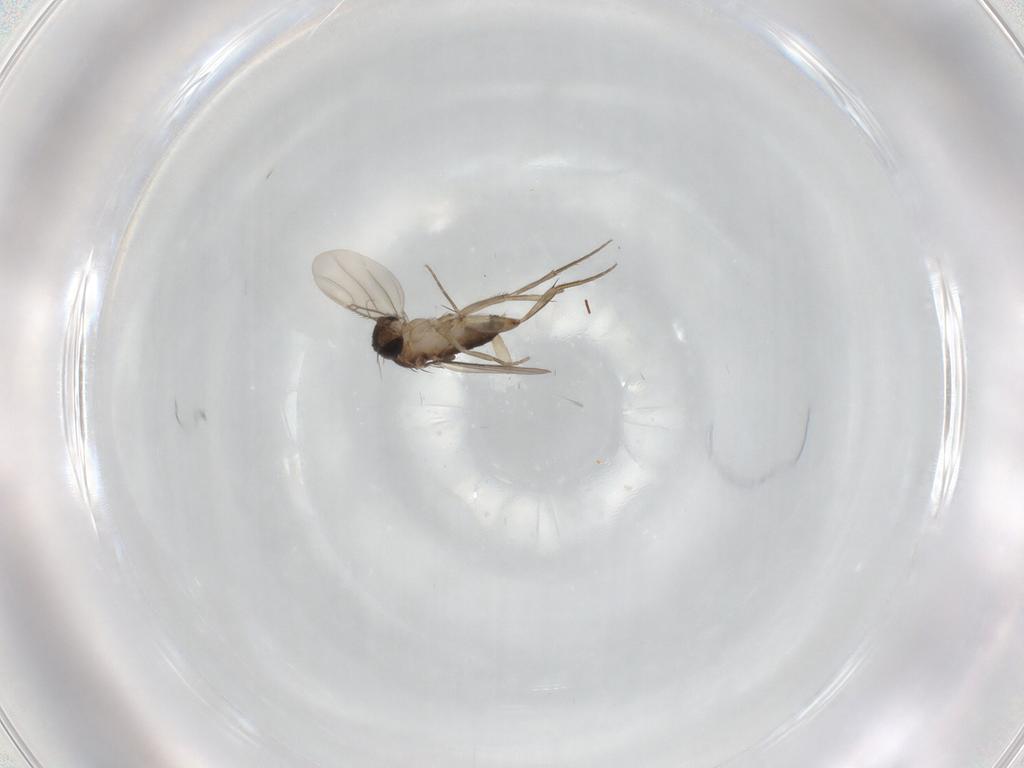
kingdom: Animalia
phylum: Arthropoda
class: Insecta
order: Diptera
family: Phoridae
